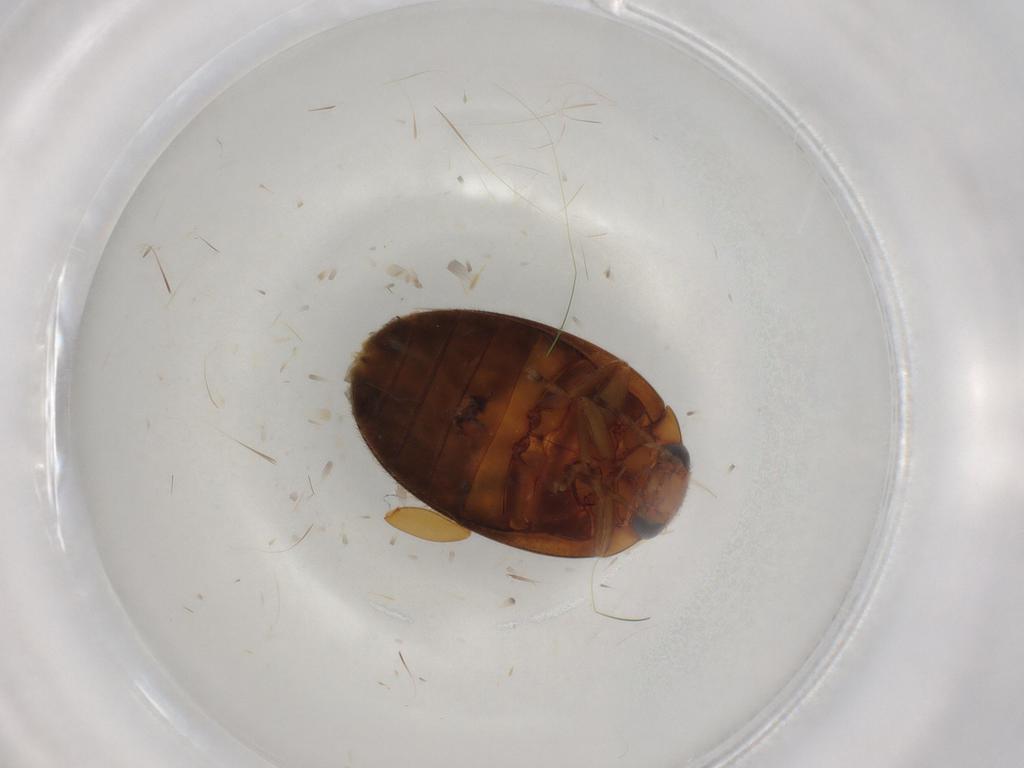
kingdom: Animalia
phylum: Arthropoda
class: Insecta
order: Coleoptera
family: Scirtidae
